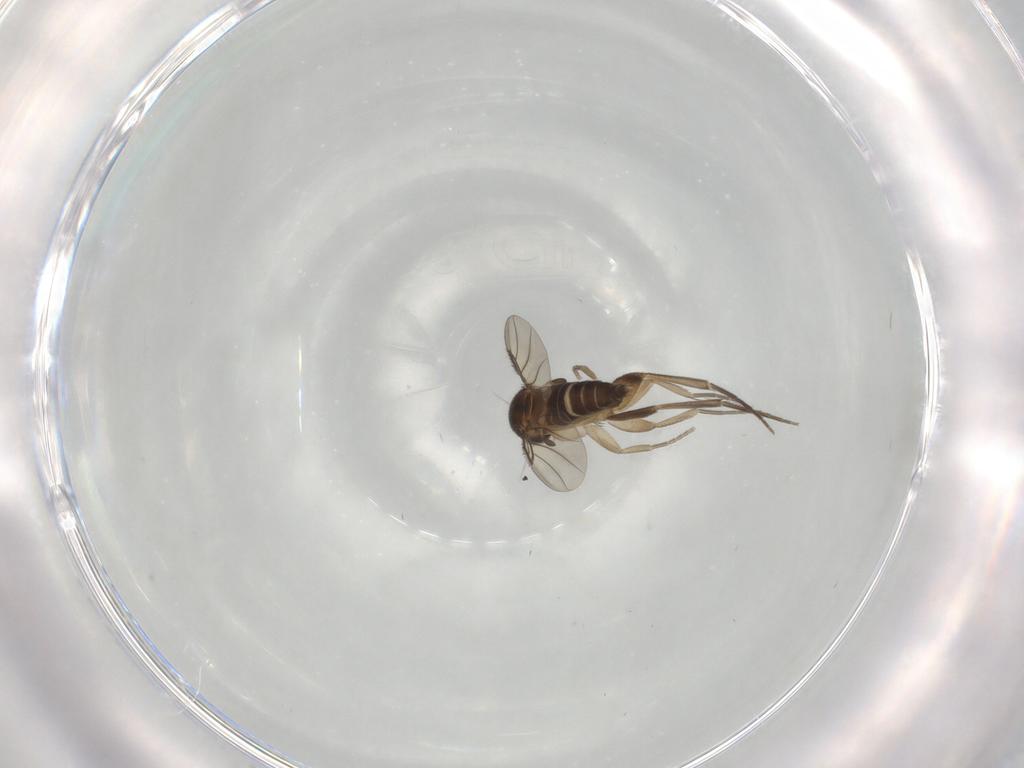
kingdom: Animalia
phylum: Arthropoda
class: Insecta
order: Diptera
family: Phoridae
